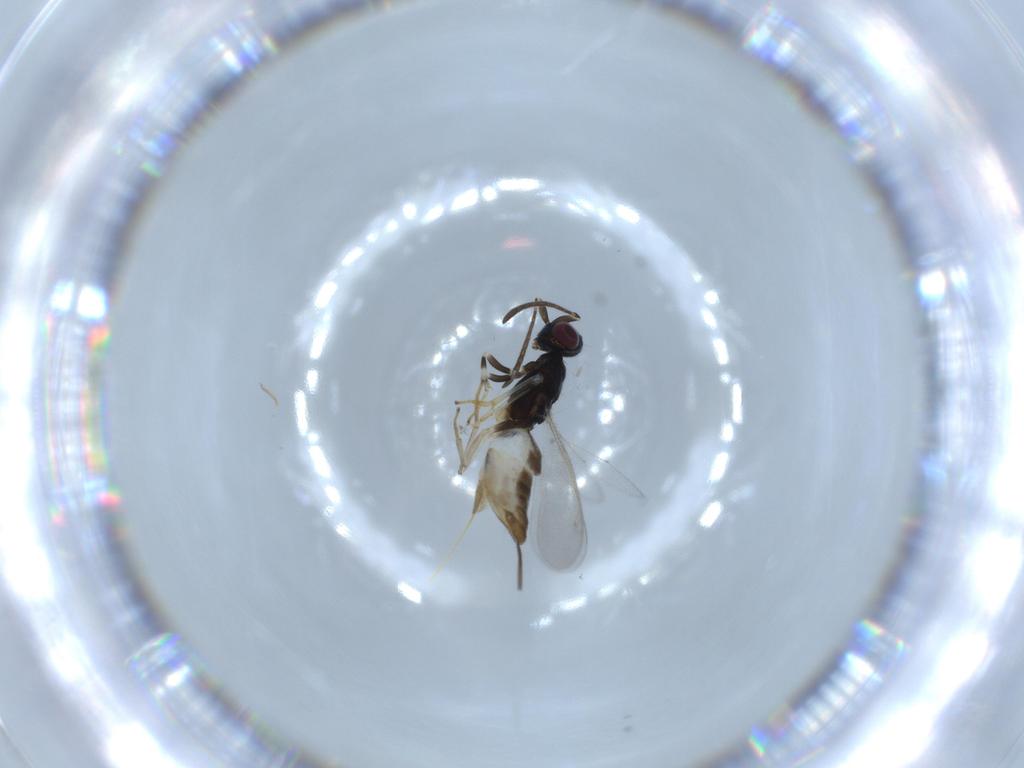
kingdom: Animalia
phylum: Arthropoda
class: Insecta
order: Hymenoptera
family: Eupelmidae
